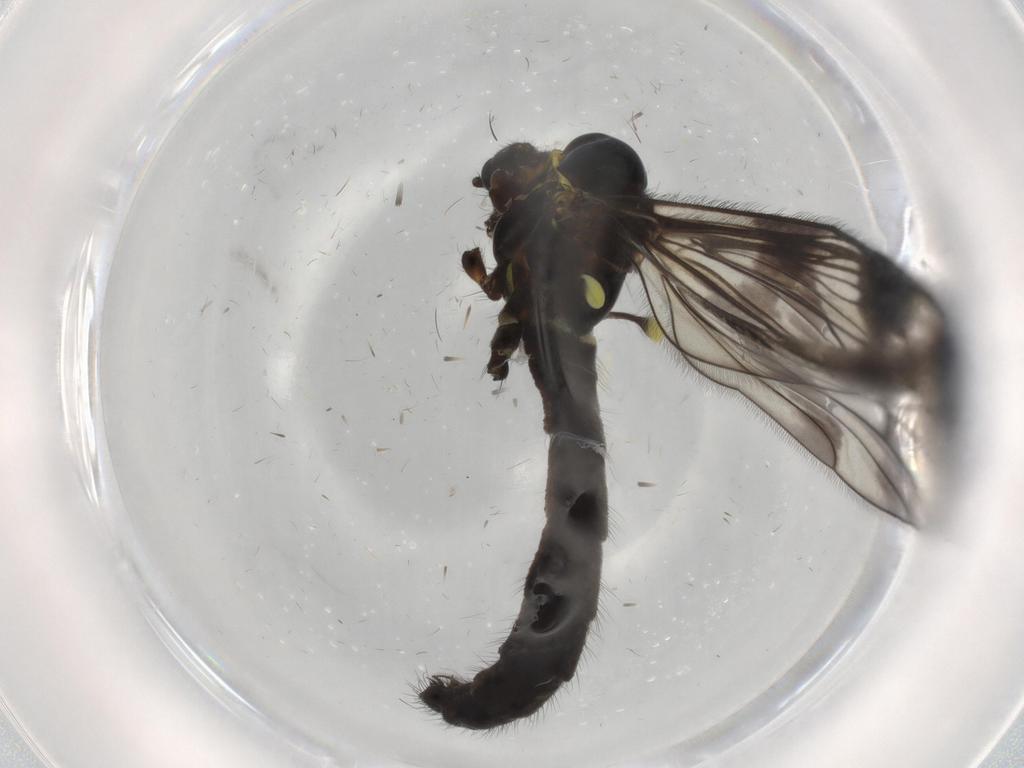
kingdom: Animalia
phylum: Arthropoda
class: Insecta
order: Diptera
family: Limoniidae
